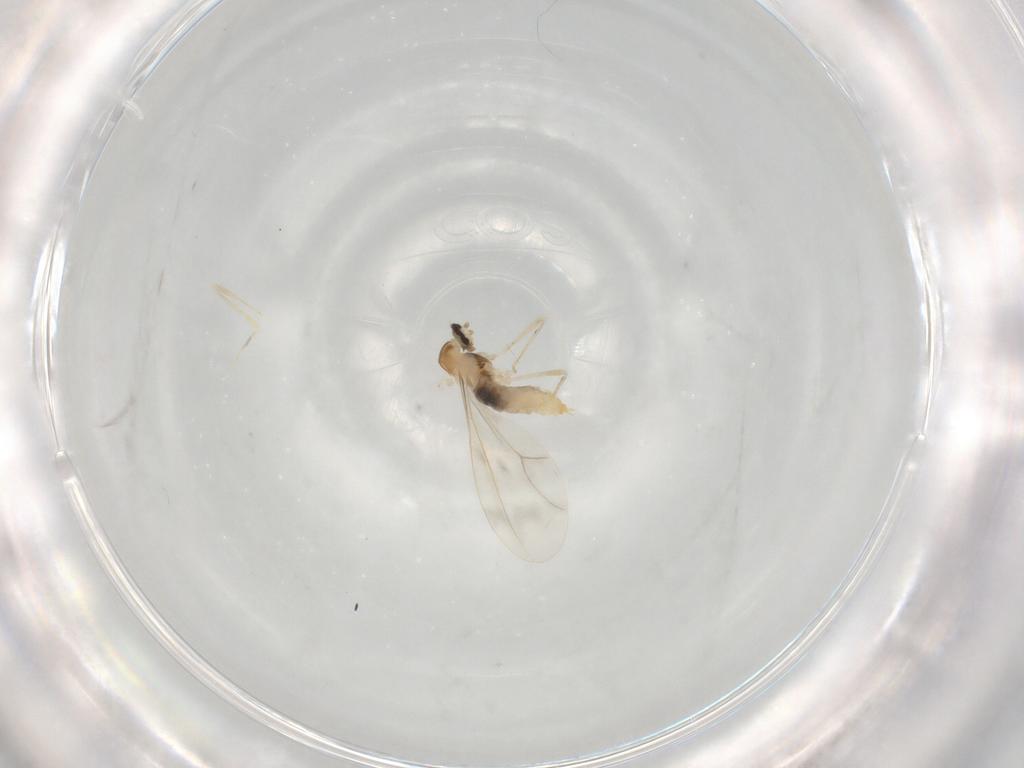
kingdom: Animalia
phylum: Arthropoda
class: Insecta
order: Diptera
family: Cecidomyiidae
